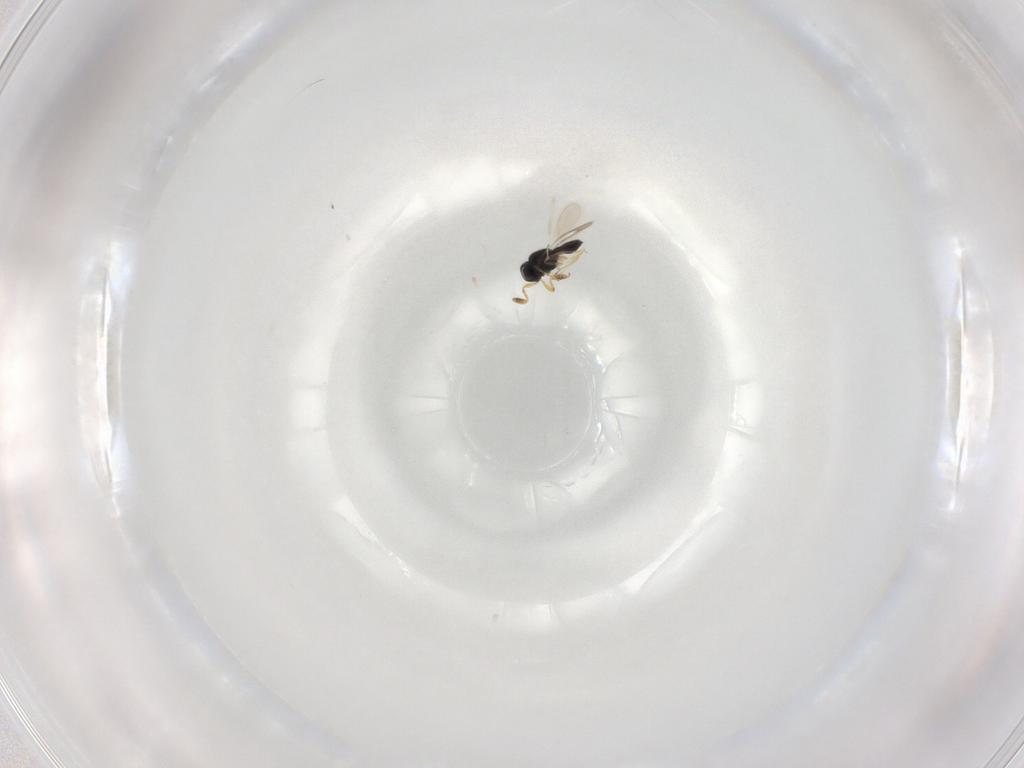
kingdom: Animalia
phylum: Arthropoda
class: Insecta
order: Hymenoptera
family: Scelionidae
